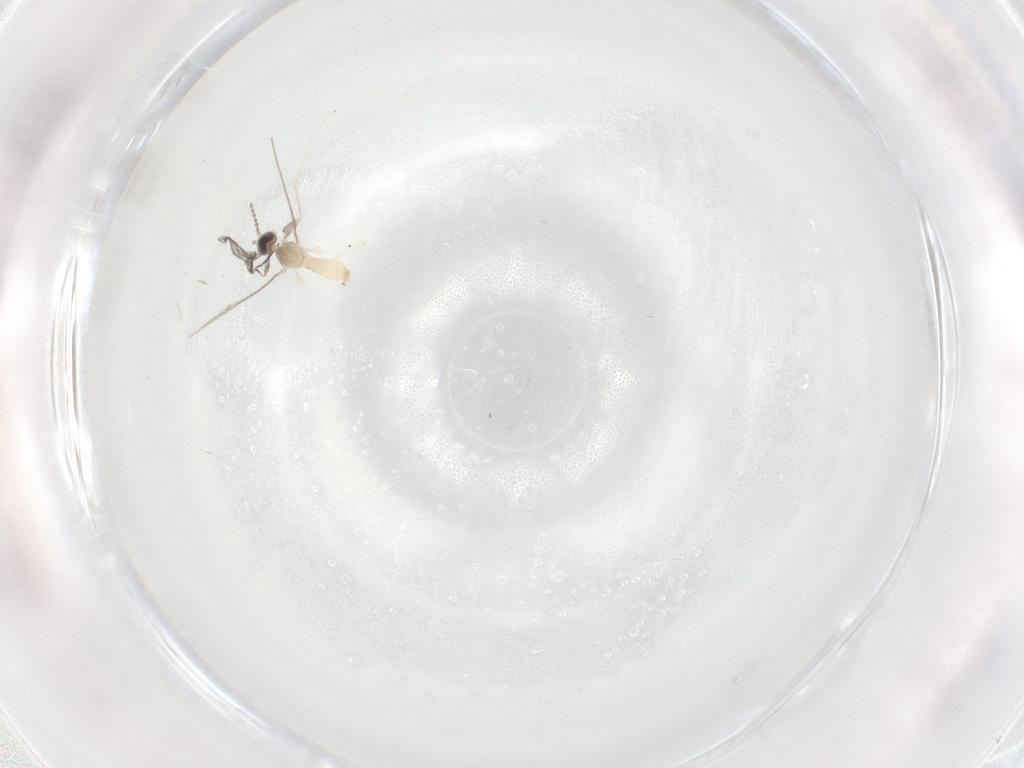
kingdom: Animalia
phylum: Arthropoda
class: Insecta
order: Diptera
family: Cecidomyiidae
